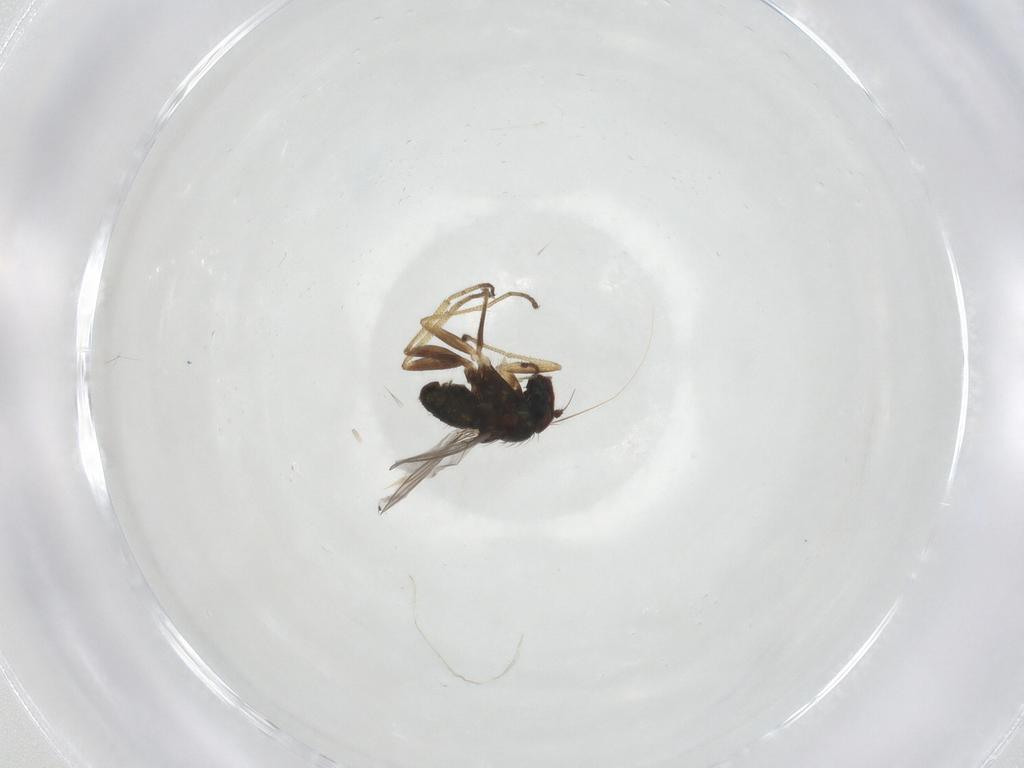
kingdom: Animalia
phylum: Arthropoda
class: Insecta
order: Diptera
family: Dolichopodidae
